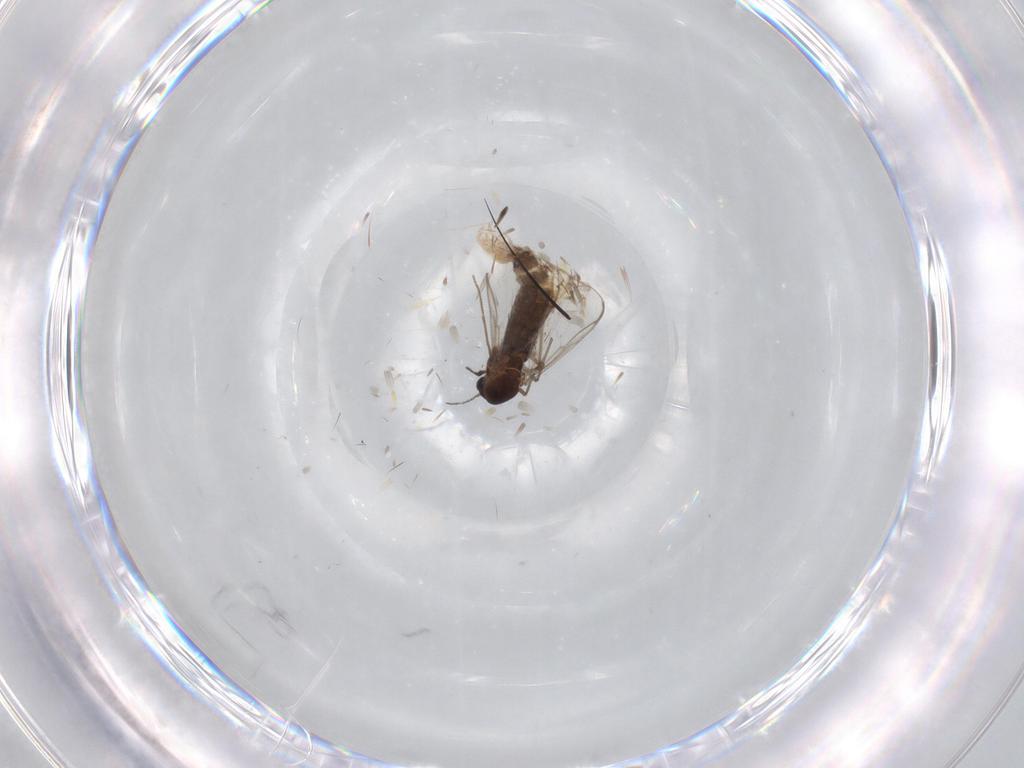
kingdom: Animalia
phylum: Arthropoda
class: Insecta
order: Diptera
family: Chironomidae
